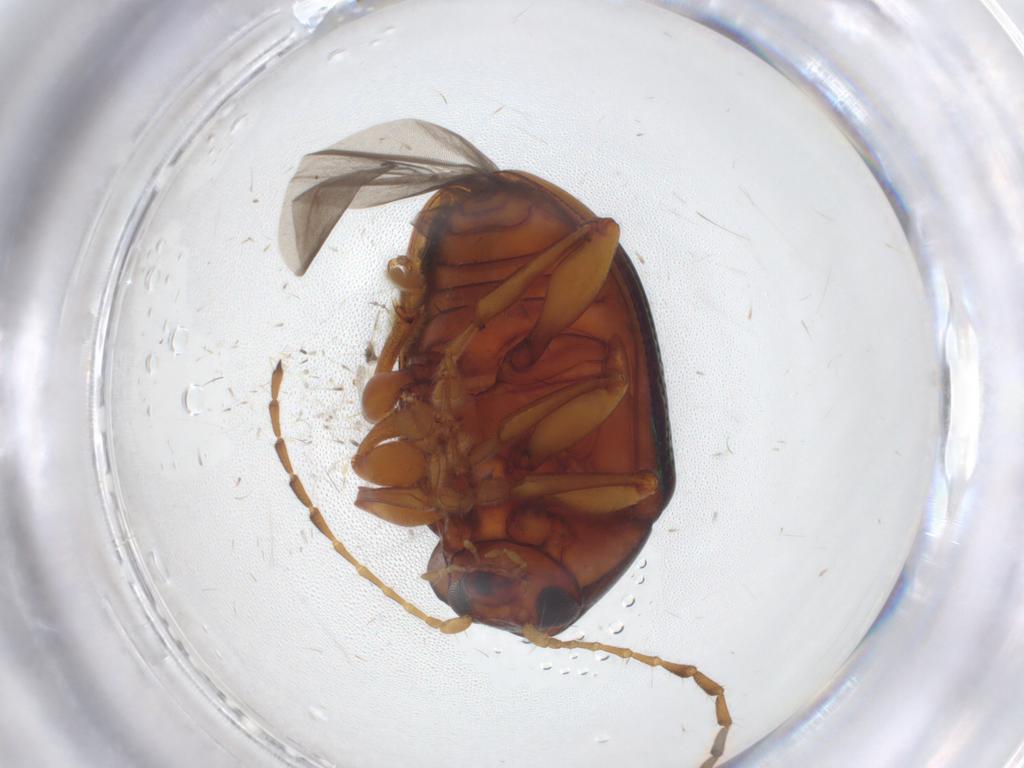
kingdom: Animalia
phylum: Arthropoda
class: Insecta
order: Coleoptera
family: Chrysomelidae
